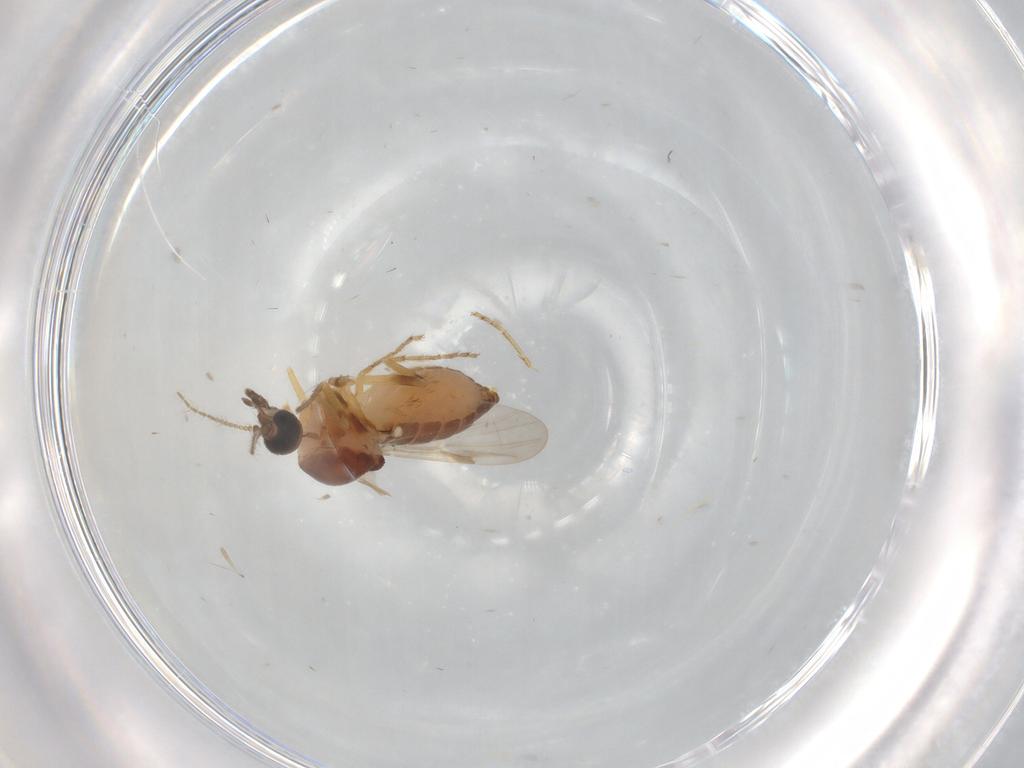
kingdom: Animalia
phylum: Arthropoda
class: Insecta
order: Diptera
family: Ceratopogonidae
